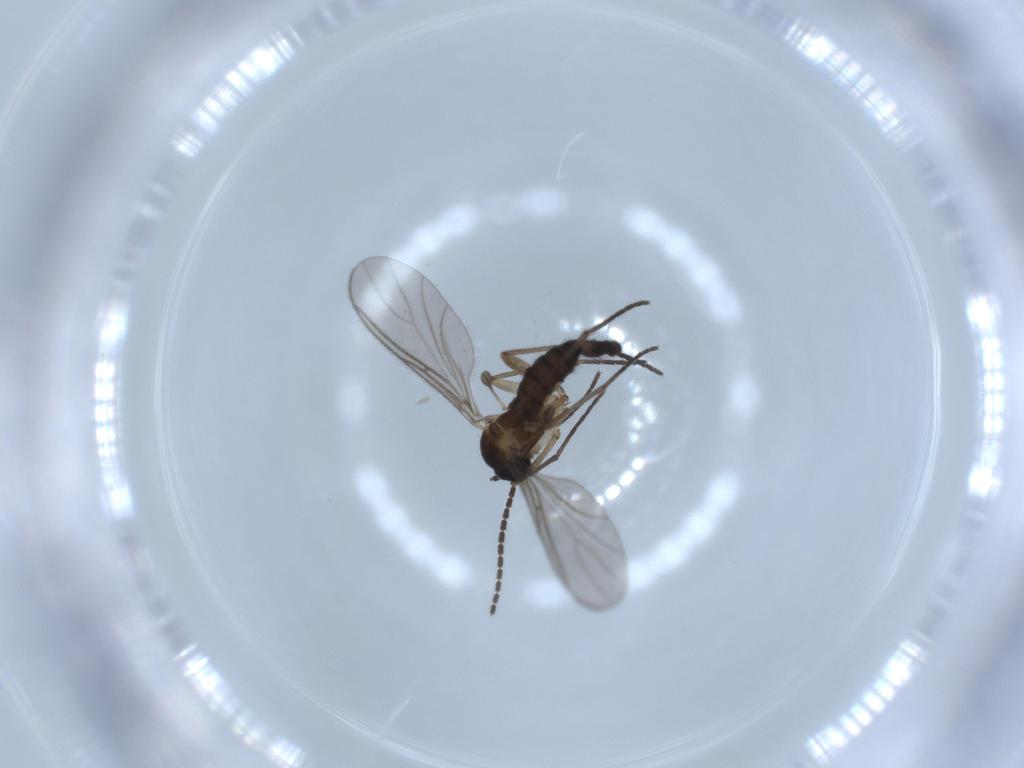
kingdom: Animalia
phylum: Arthropoda
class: Insecta
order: Diptera
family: Sciaridae
